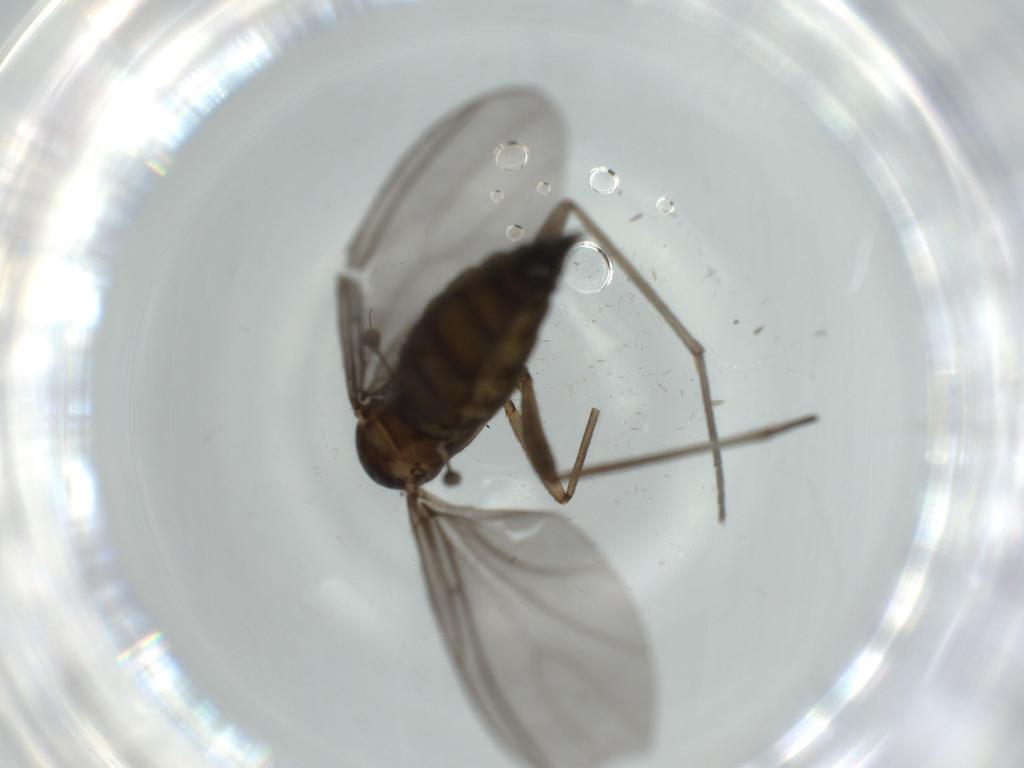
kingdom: Animalia
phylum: Arthropoda
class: Insecta
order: Diptera
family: Sciaridae
